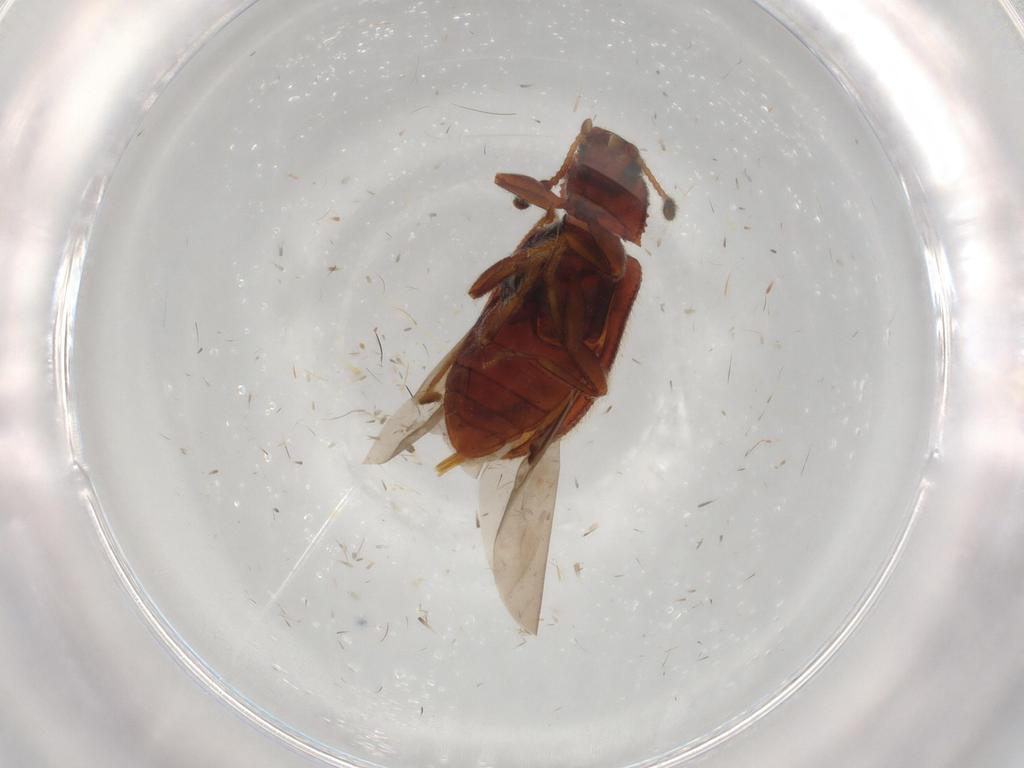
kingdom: Animalia
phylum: Arthropoda
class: Insecta
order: Coleoptera
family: Tenebrionidae
